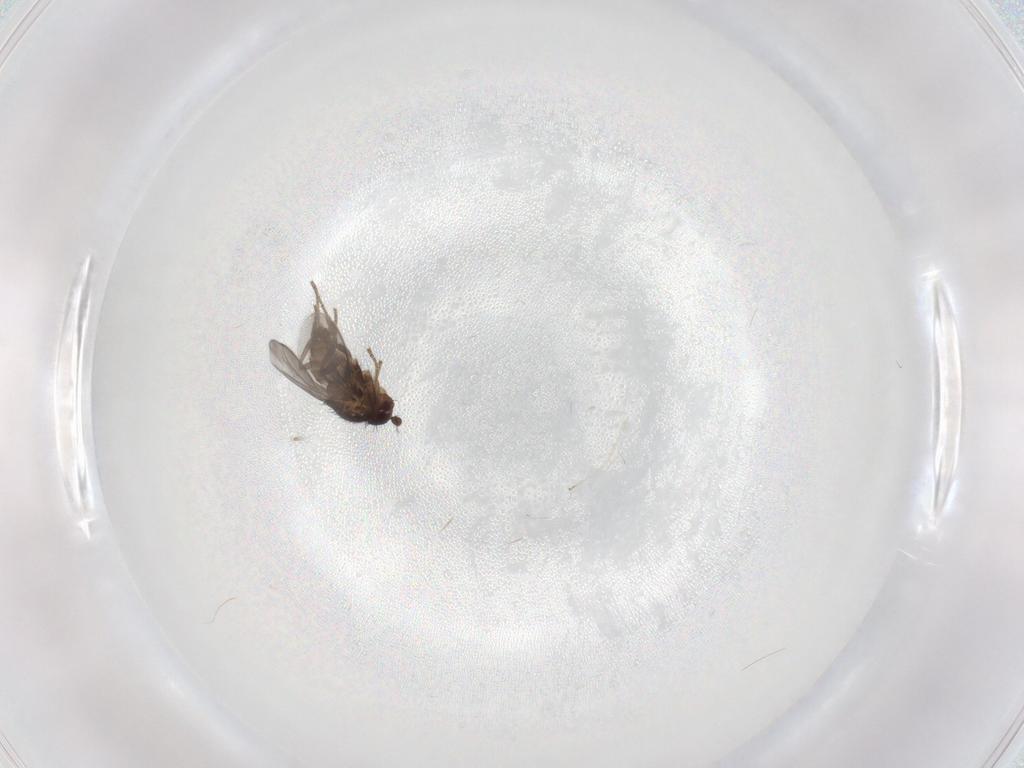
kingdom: Animalia
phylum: Arthropoda
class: Insecta
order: Diptera
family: Sphaeroceridae
